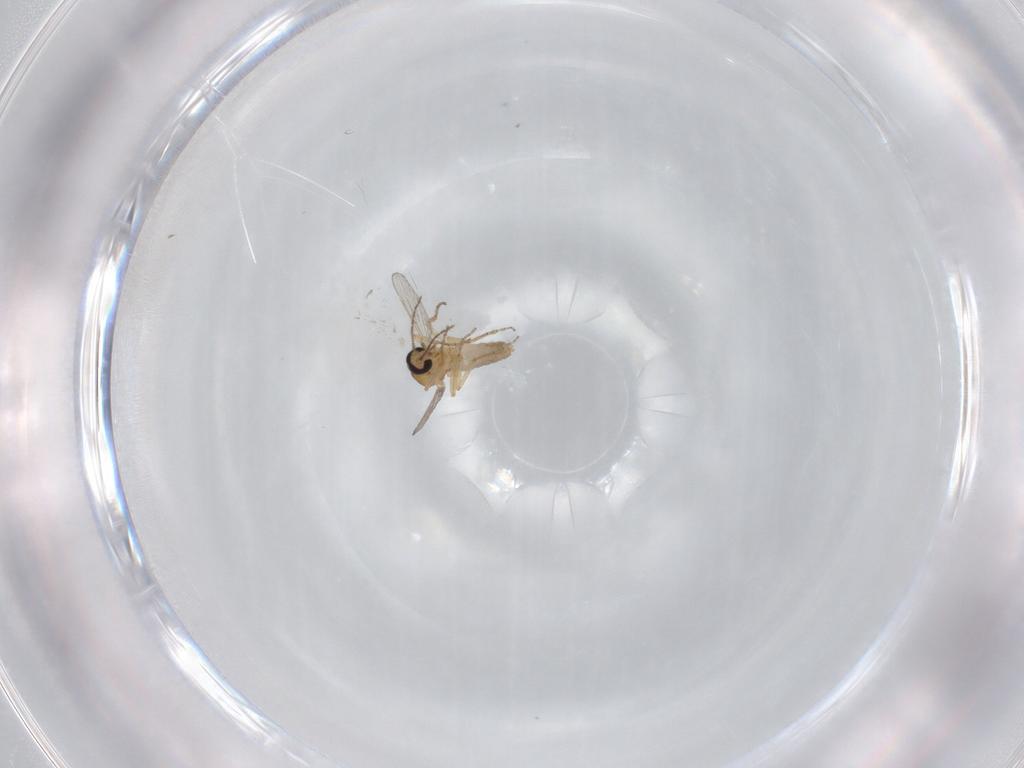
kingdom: Animalia
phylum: Arthropoda
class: Insecta
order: Diptera
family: Ceratopogonidae
